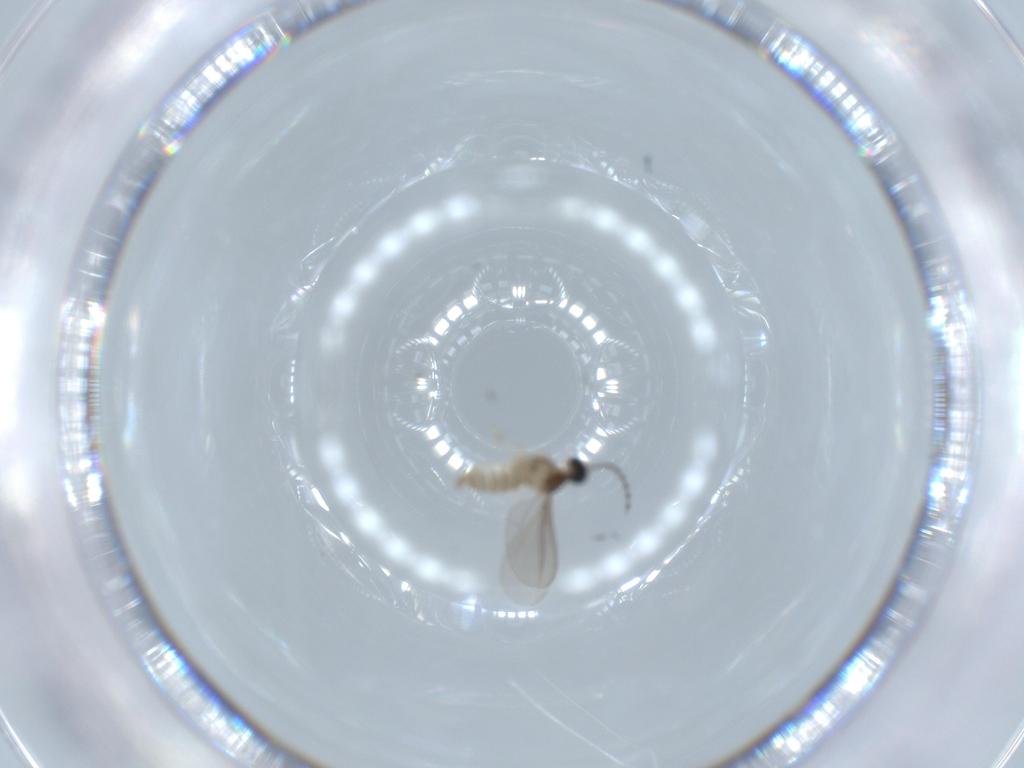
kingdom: Animalia
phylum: Arthropoda
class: Insecta
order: Diptera
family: Cecidomyiidae
